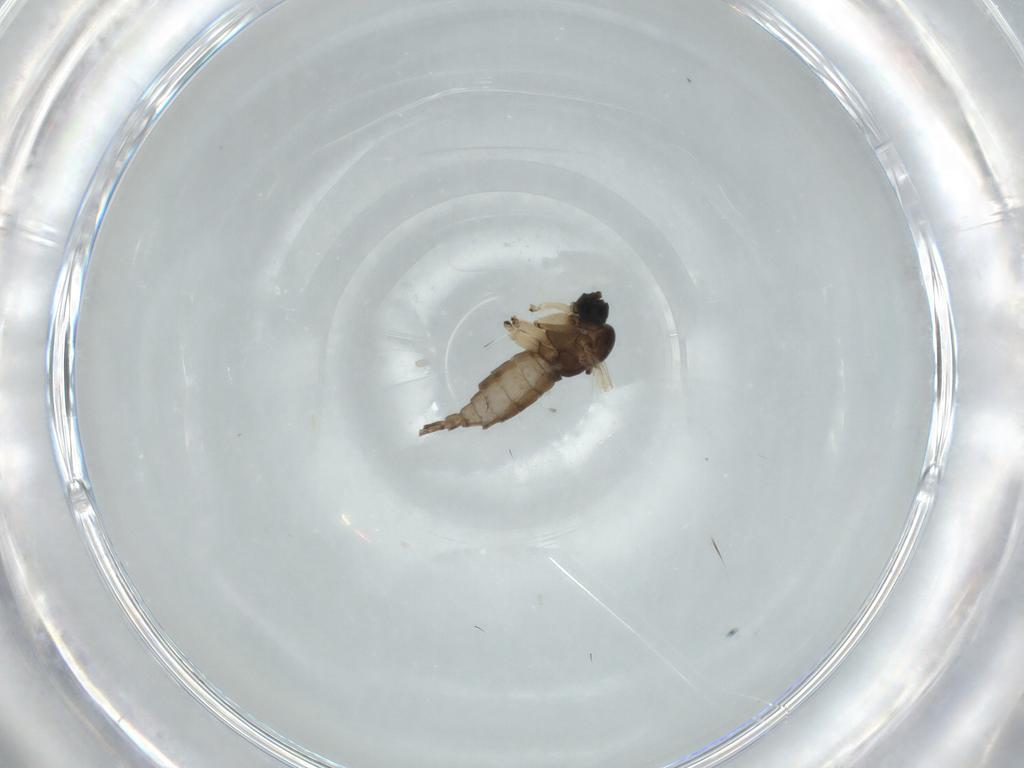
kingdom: Animalia
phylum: Arthropoda
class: Insecta
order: Diptera
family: Sciaridae
